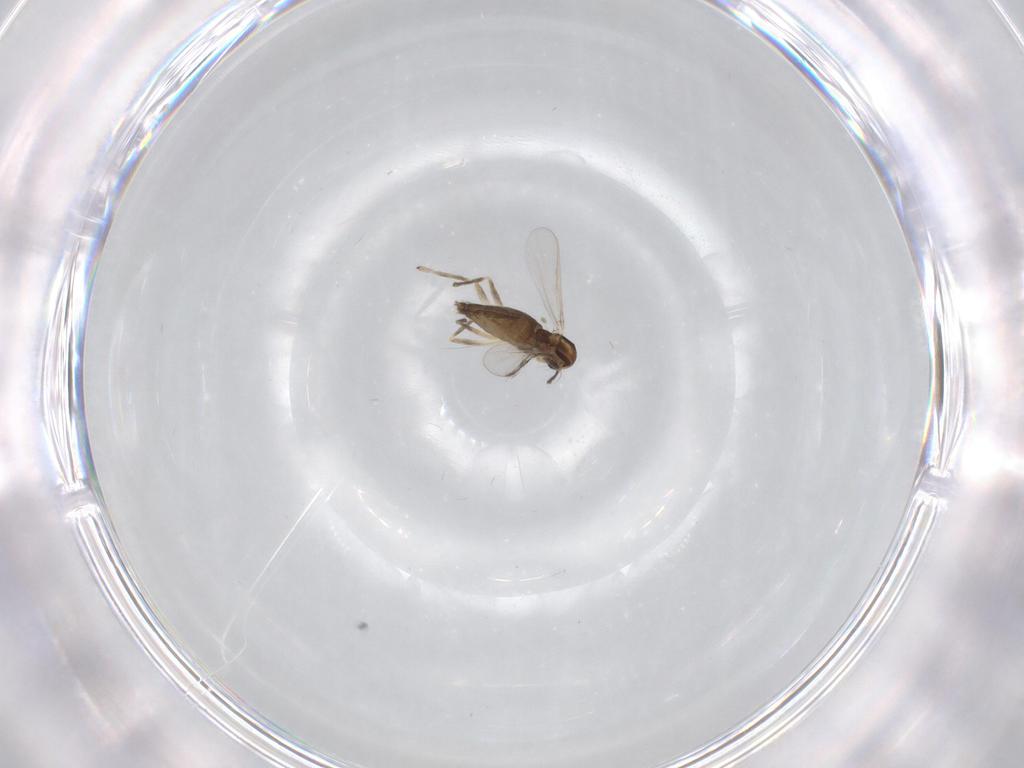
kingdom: Animalia
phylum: Arthropoda
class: Insecta
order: Diptera
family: Chironomidae
